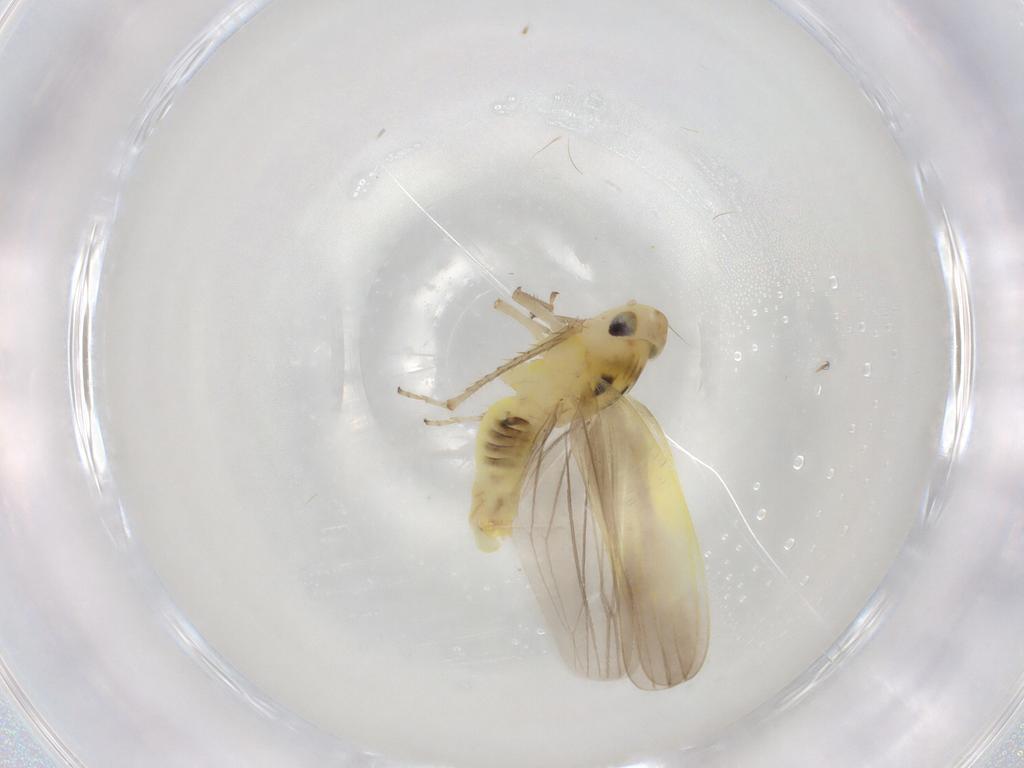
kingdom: Animalia
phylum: Arthropoda
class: Insecta
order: Hemiptera
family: Cicadellidae
